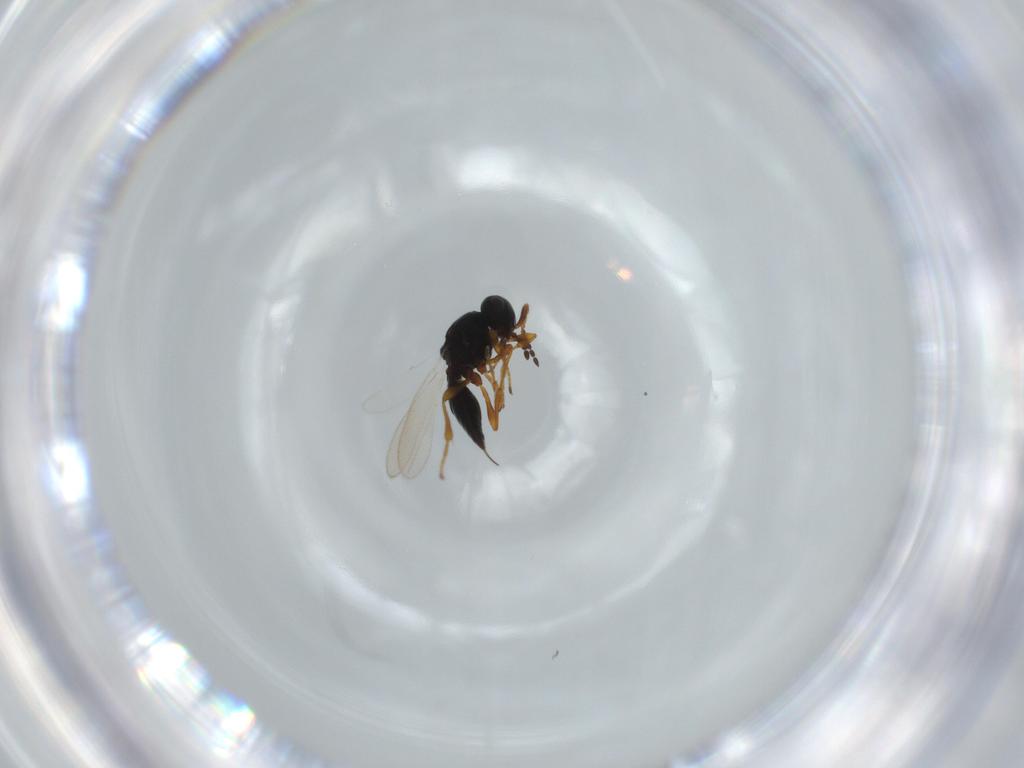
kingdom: Animalia
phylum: Arthropoda
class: Insecta
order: Hymenoptera
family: Platygastridae
